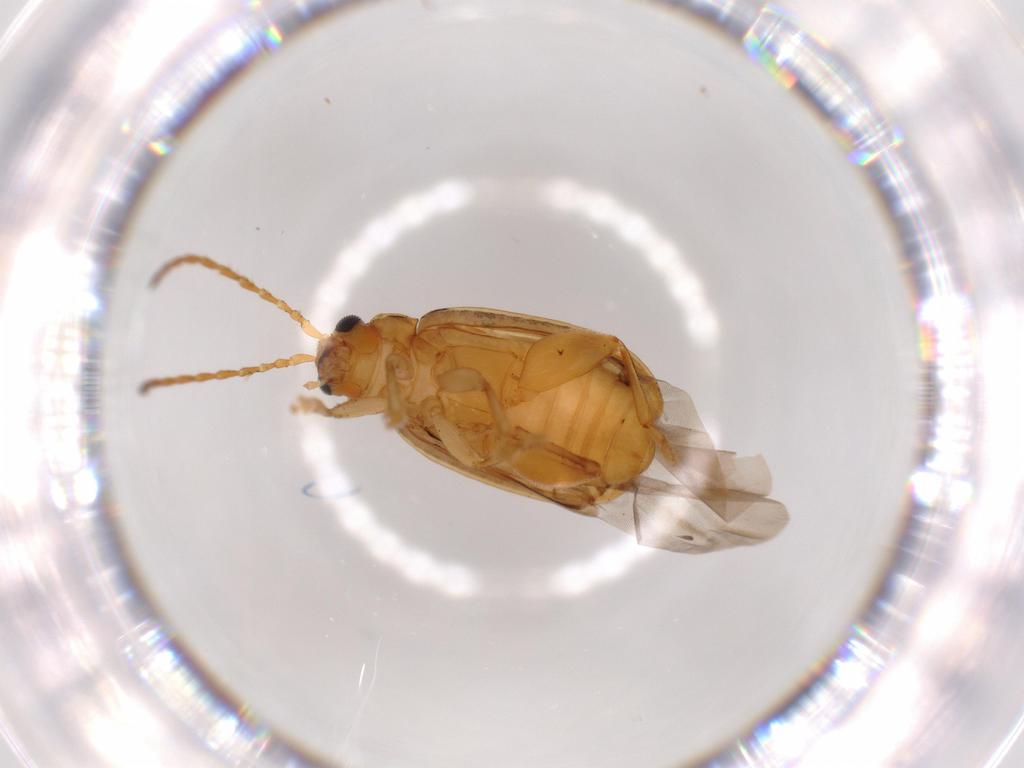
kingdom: Animalia
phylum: Arthropoda
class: Insecta
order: Coleoptera
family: Chrysomelidae
